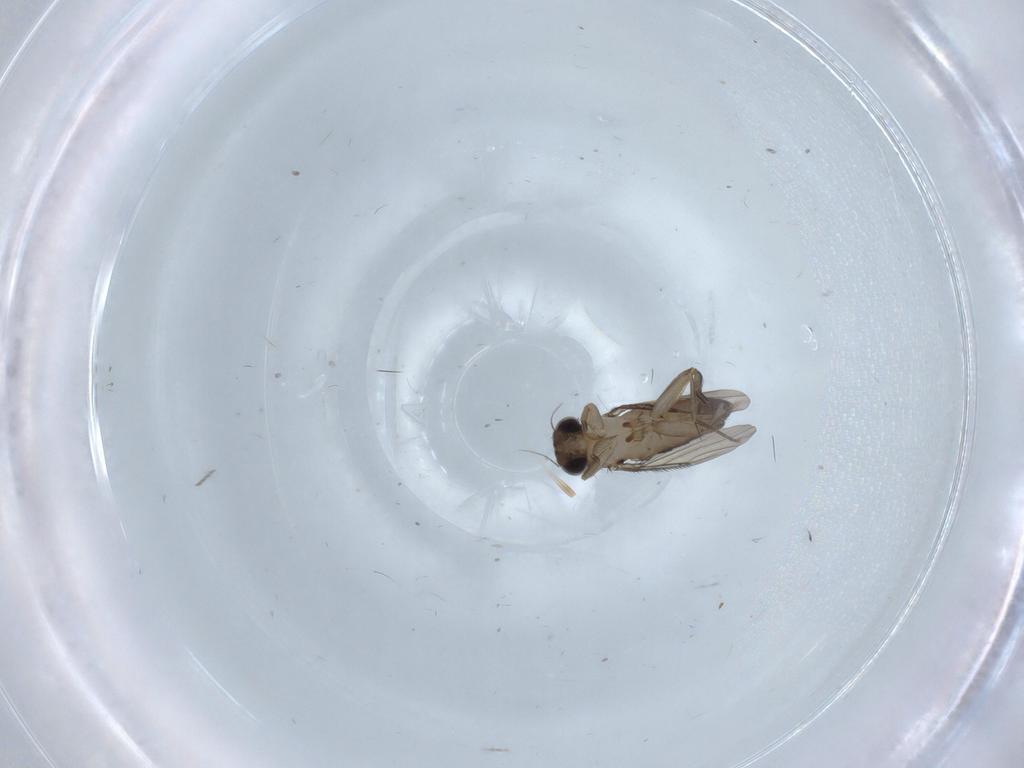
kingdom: Animalia
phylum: Arthropoda
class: Insecta
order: Diptera
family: Phoridae
